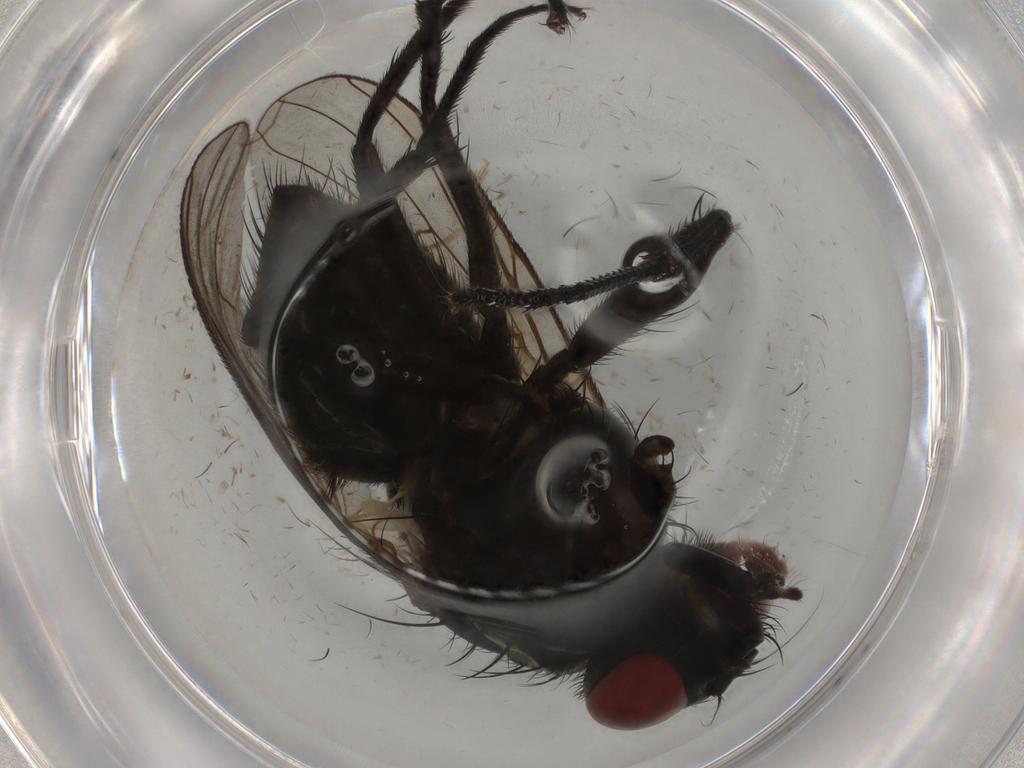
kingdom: Animalia
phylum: Arthropoda
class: Insecta
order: Diptera
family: Muscidae
